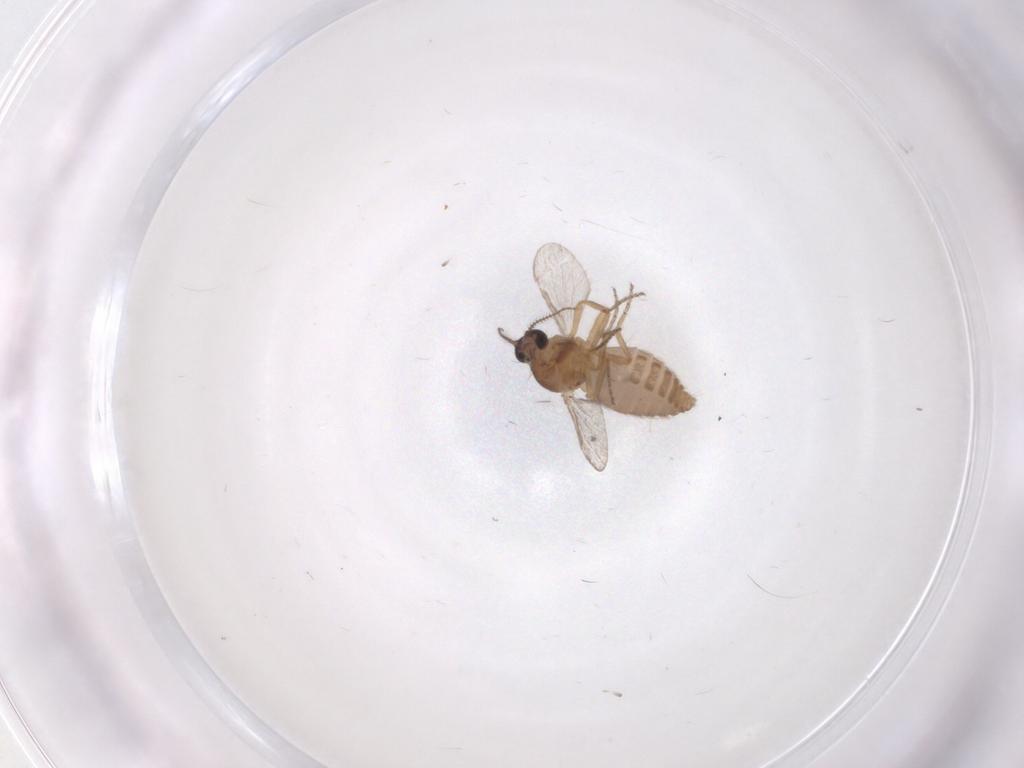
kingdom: Animalia
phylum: Arthropoda
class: Insecta
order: Diptera
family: Ceratopogonidae
